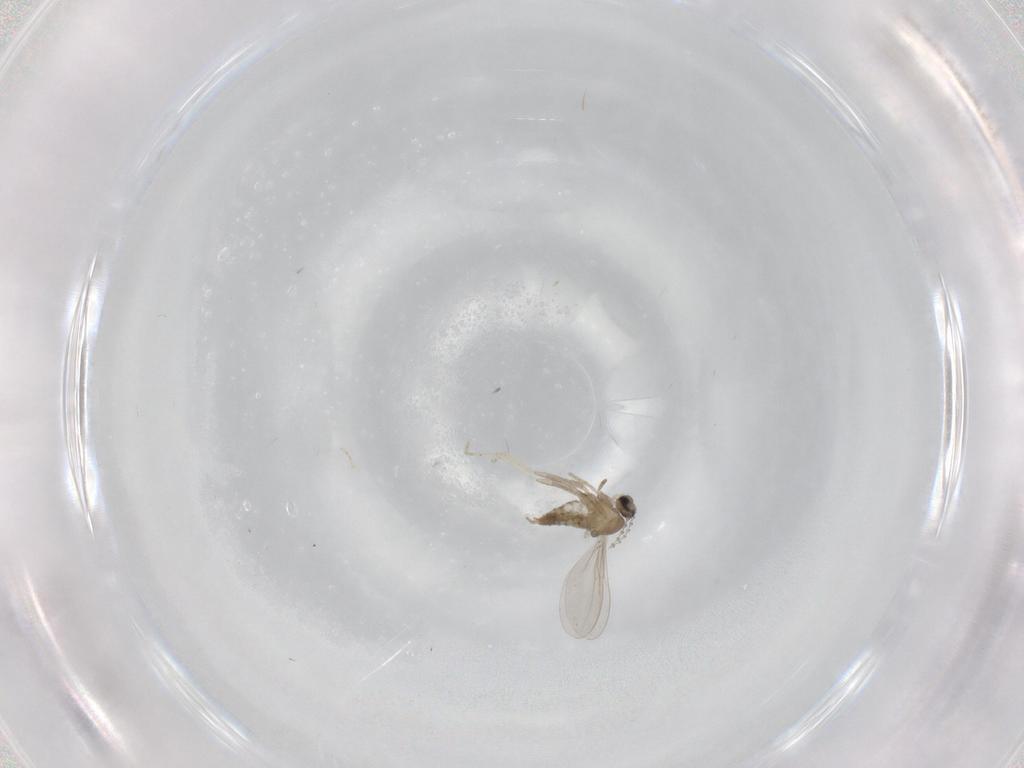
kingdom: Animalia
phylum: Arthropoda
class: Insecta
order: Diptera
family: Cecidomyiidae
